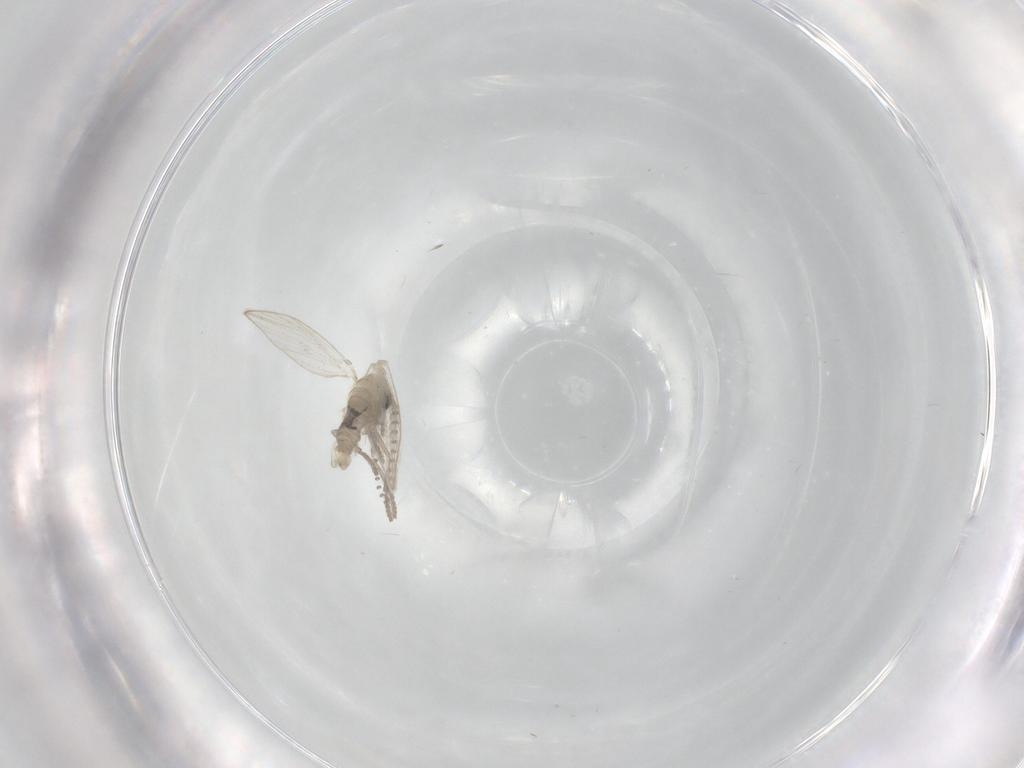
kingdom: Animalia
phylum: Arthropoda
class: Insecta
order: Diptera
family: Psychodidae
